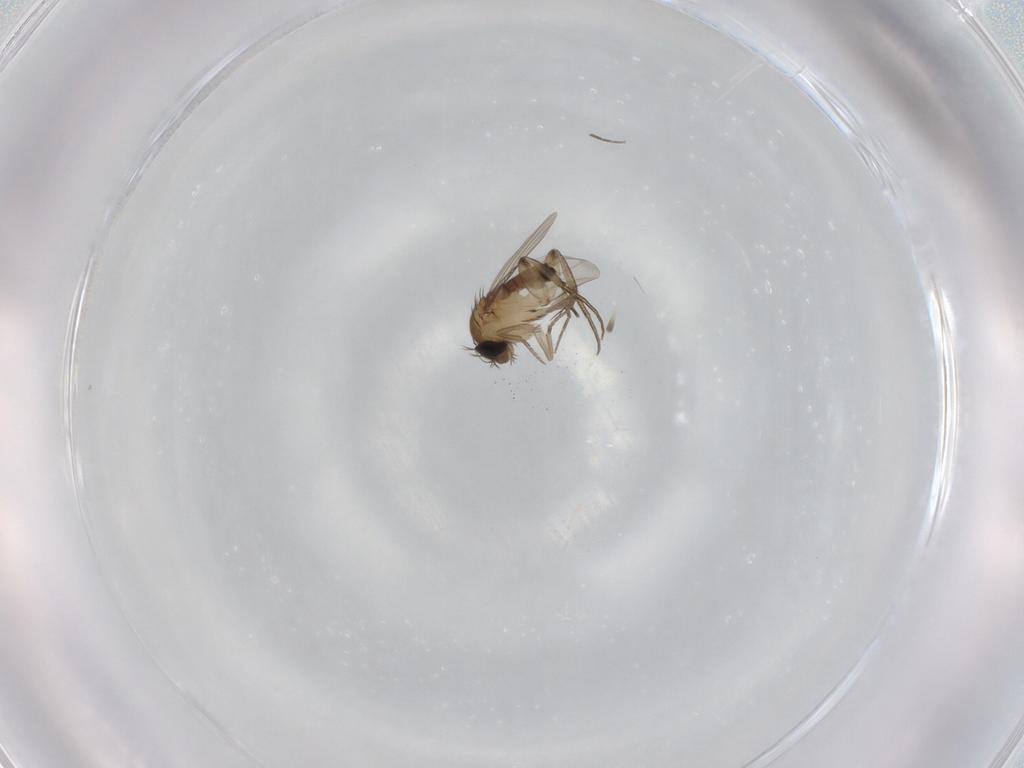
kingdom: Animalia
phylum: Arthropoda
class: Insecta
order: Diptera
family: Phoridae
